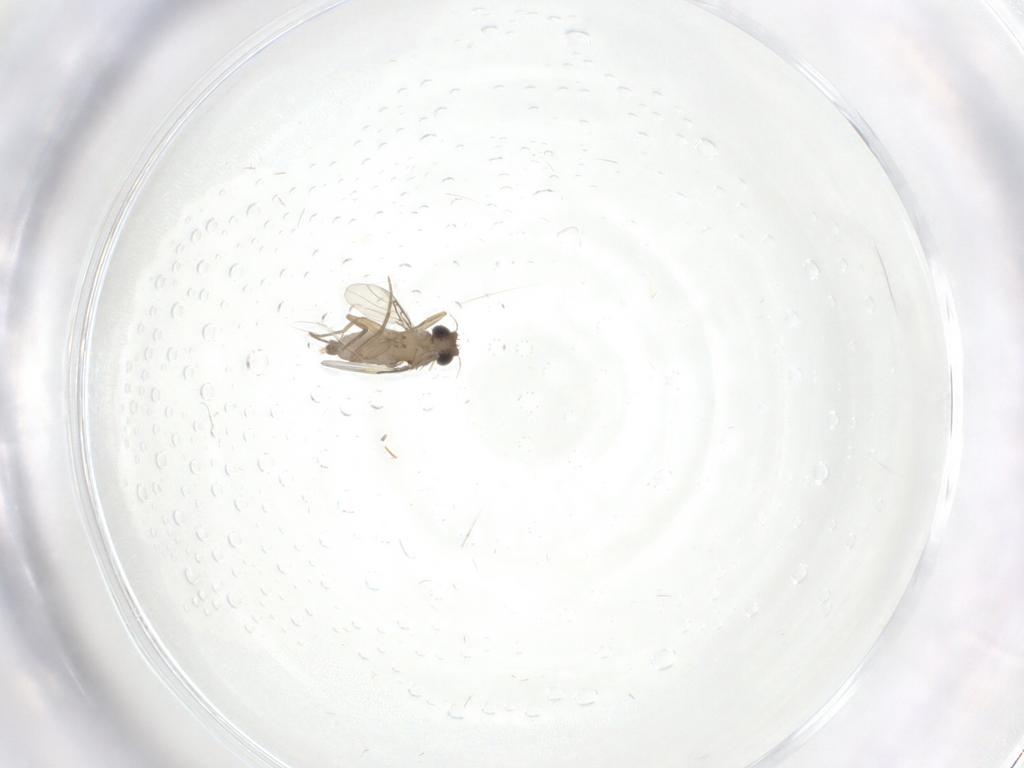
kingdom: Animalia
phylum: Arthropoda
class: Insecta
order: Diptera
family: Phoridae
